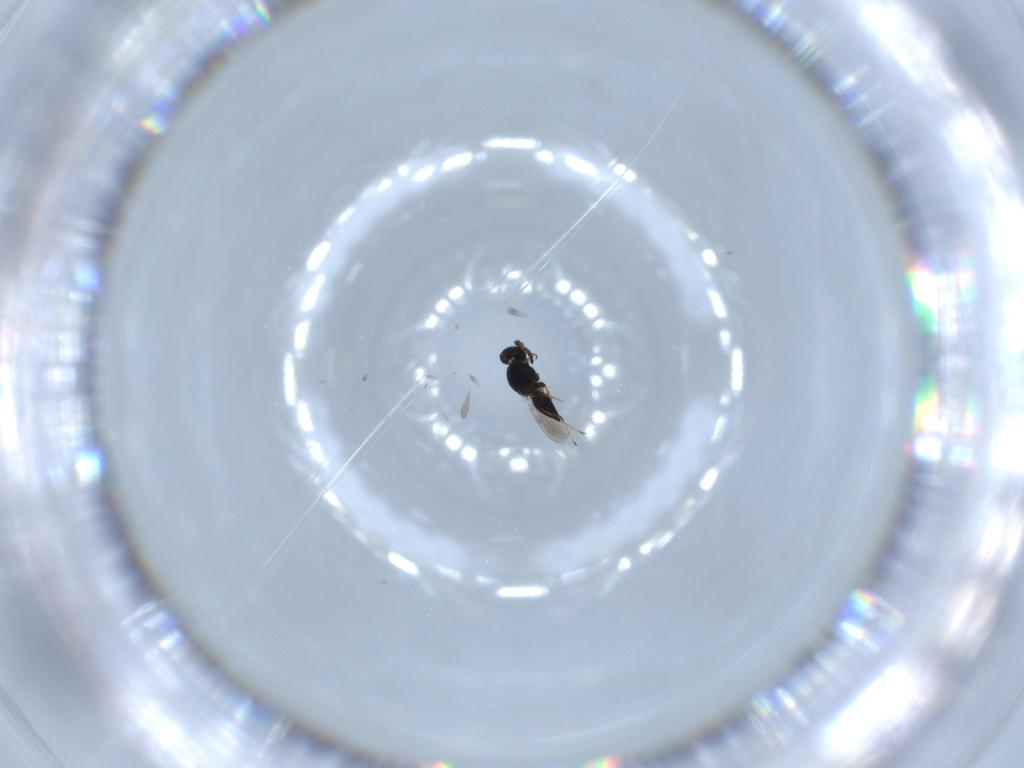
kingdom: Animalia
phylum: Arthropoda
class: Insecta
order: Hymenoptera
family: Platygastridae
